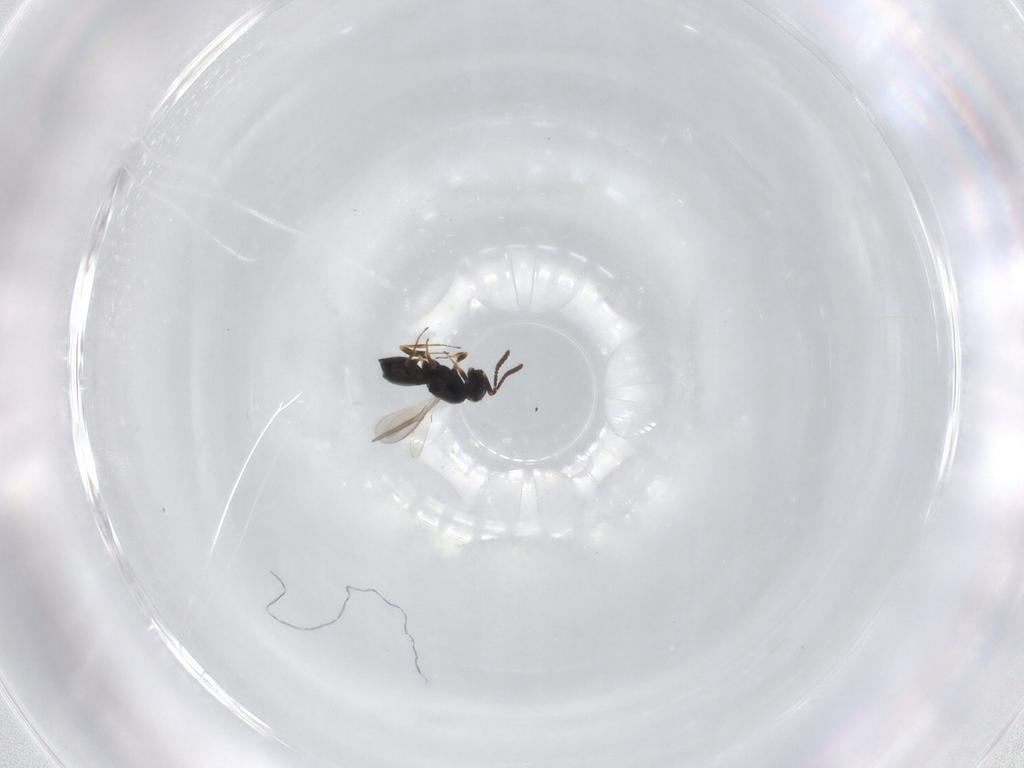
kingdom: Animalia
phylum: Arthropoda
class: Insecta
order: Hymenoptera
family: Scelionidae
